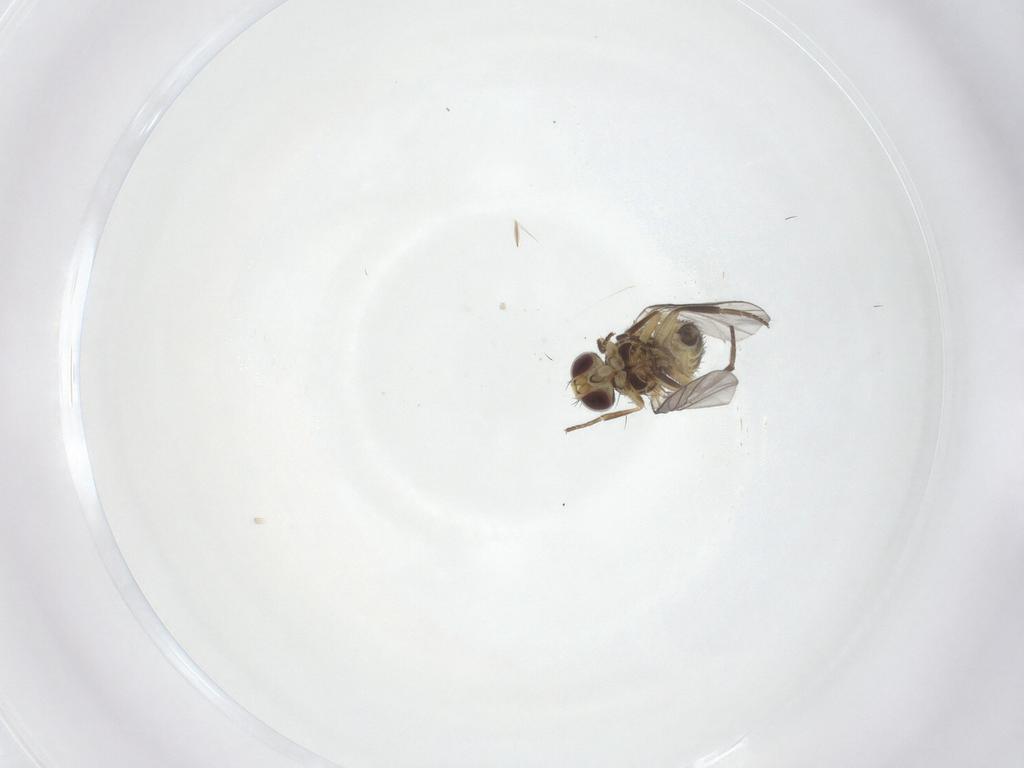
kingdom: Animalia
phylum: Arthropoda
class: Insecta
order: Diptera
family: Agromyzidae
